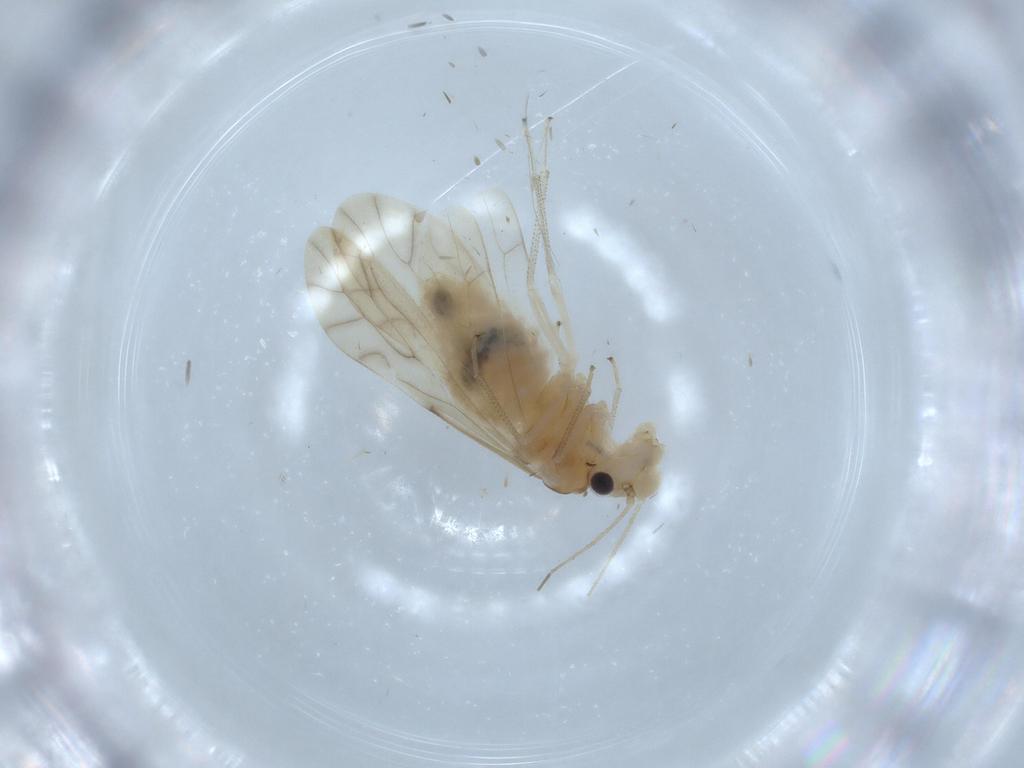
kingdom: Animalia
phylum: Arthropoda
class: Insecta
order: Psocodea
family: Caeciliusidae
